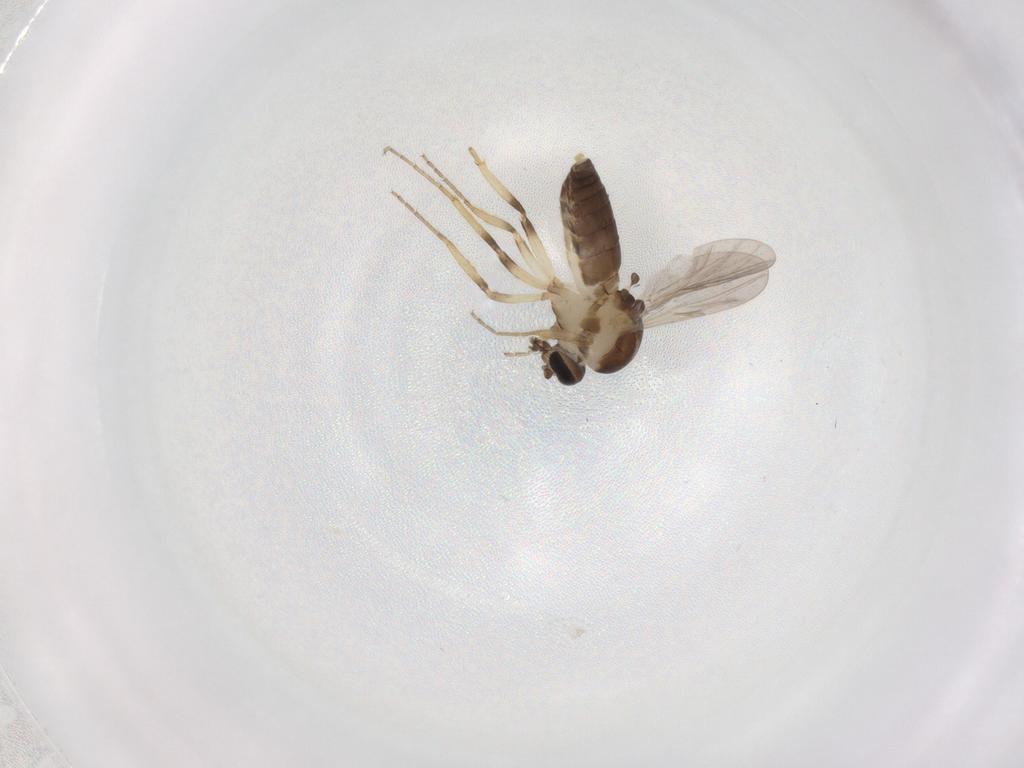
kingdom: Animalia
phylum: Arthropoda
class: Insecta
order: Diptera
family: Ceratopogonidae
